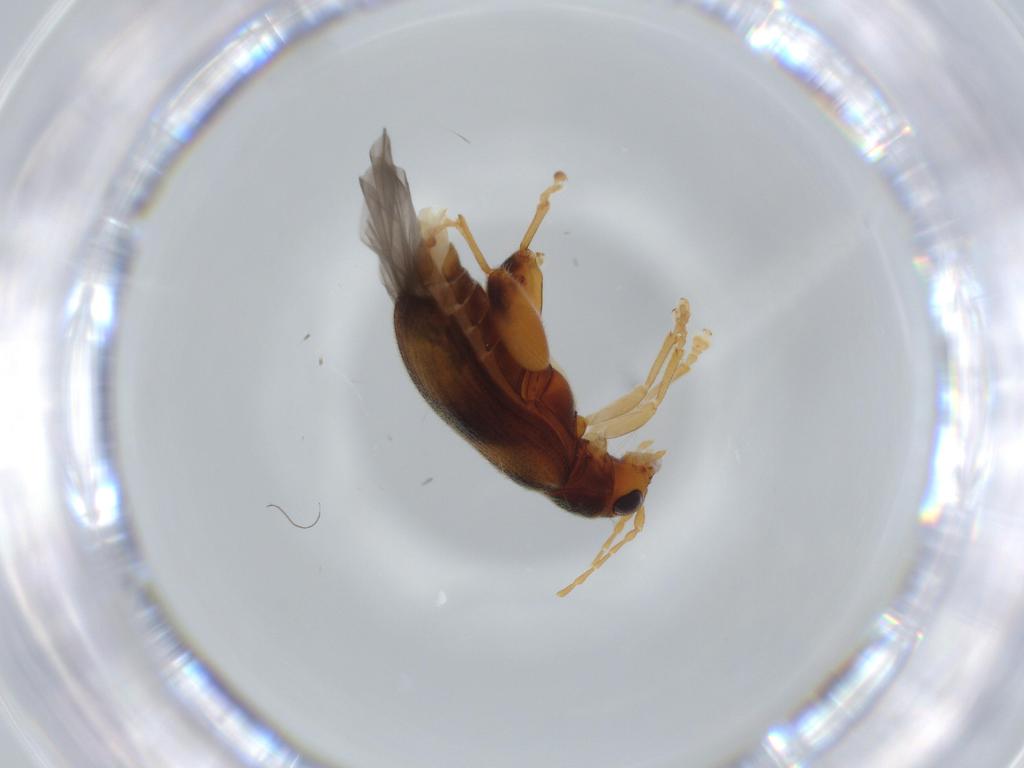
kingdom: Animalia
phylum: Arthropoda
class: Insecta
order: Coleoptera
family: Chrysomelidae
